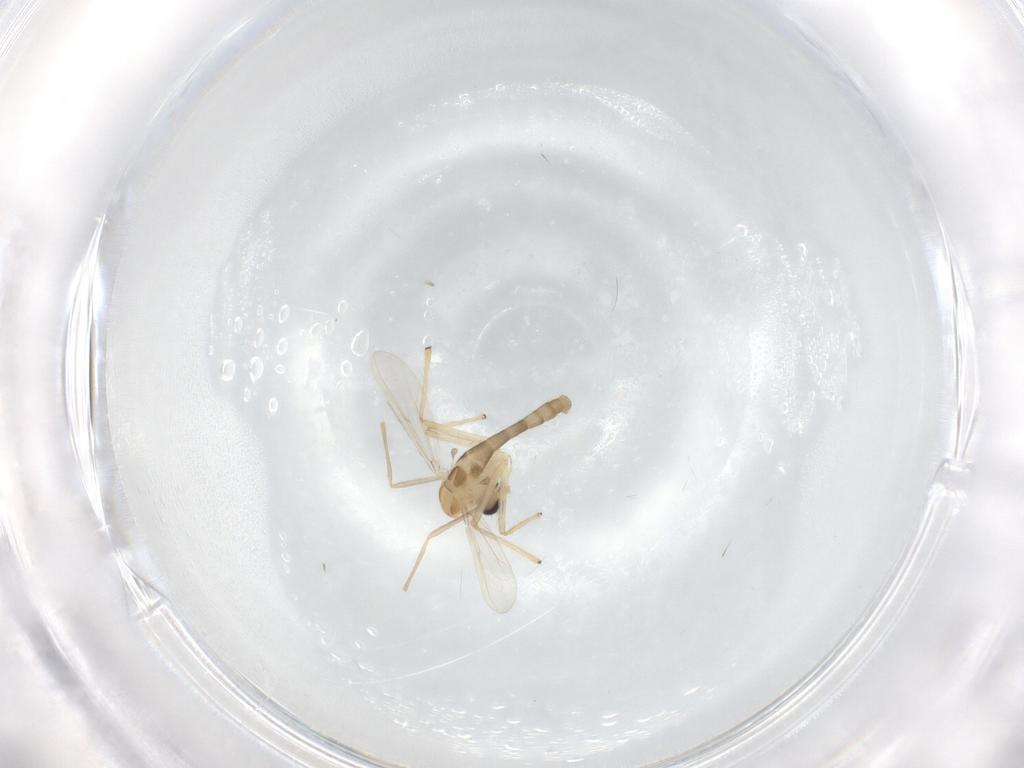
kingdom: Animalia
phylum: Arthropoda
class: Insecta
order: Diptera
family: Chironomidae
